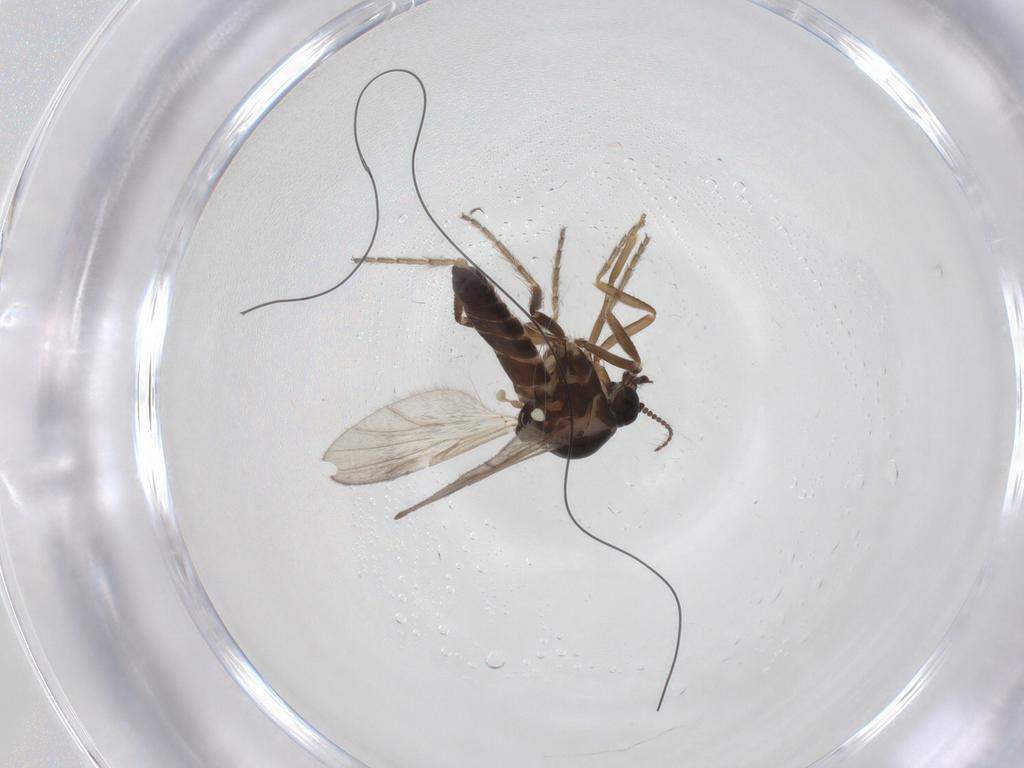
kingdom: Animalia
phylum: Arthropoda
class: Insecta
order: Diptera
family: Ceratopogonidae
